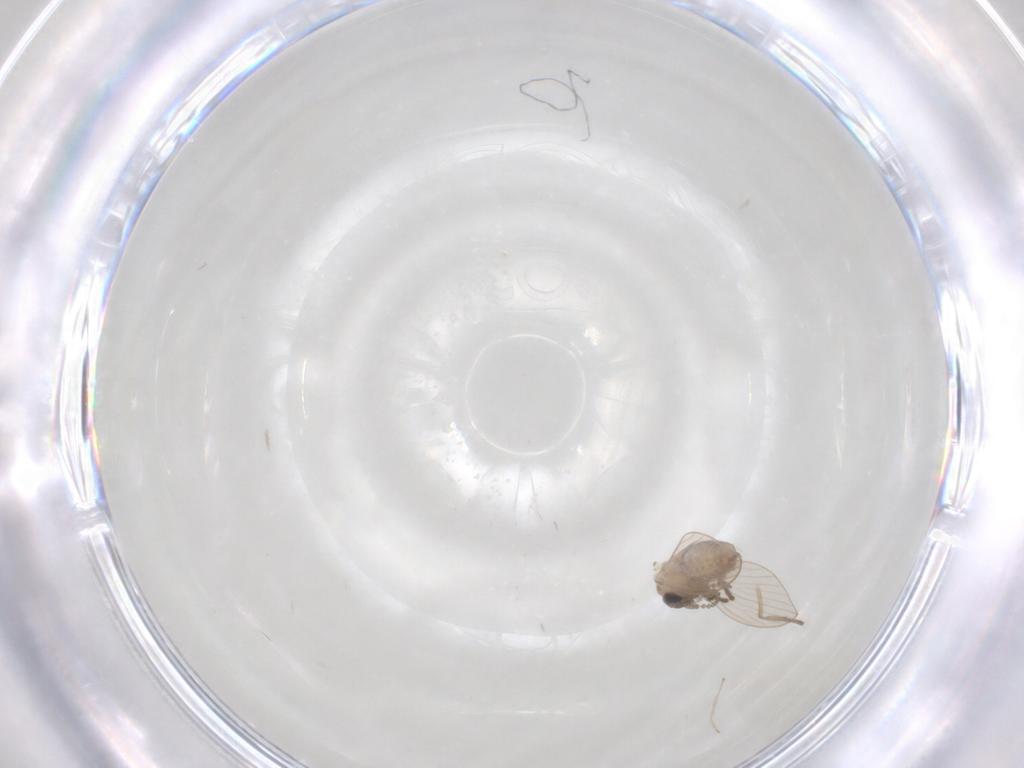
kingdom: Animalia
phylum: Arthropoda
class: Insecta
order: Diptera
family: Psychodidae
